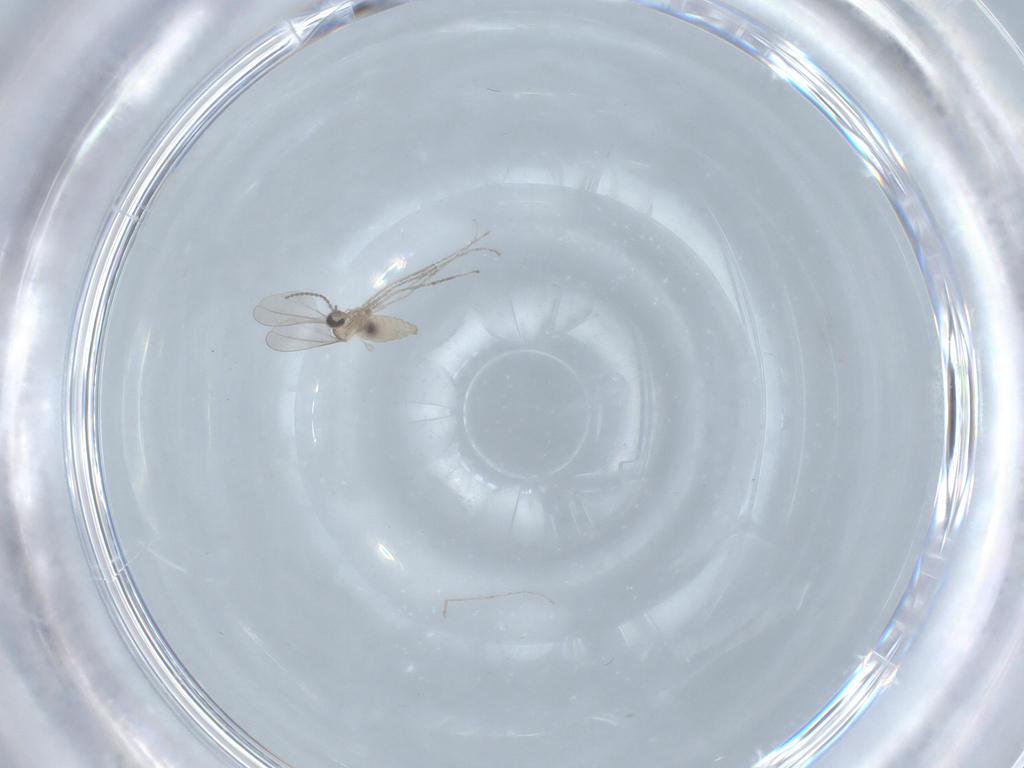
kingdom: Animalia
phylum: Arthropoda
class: Insecta
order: Diptera
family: Cecidomyiidae
